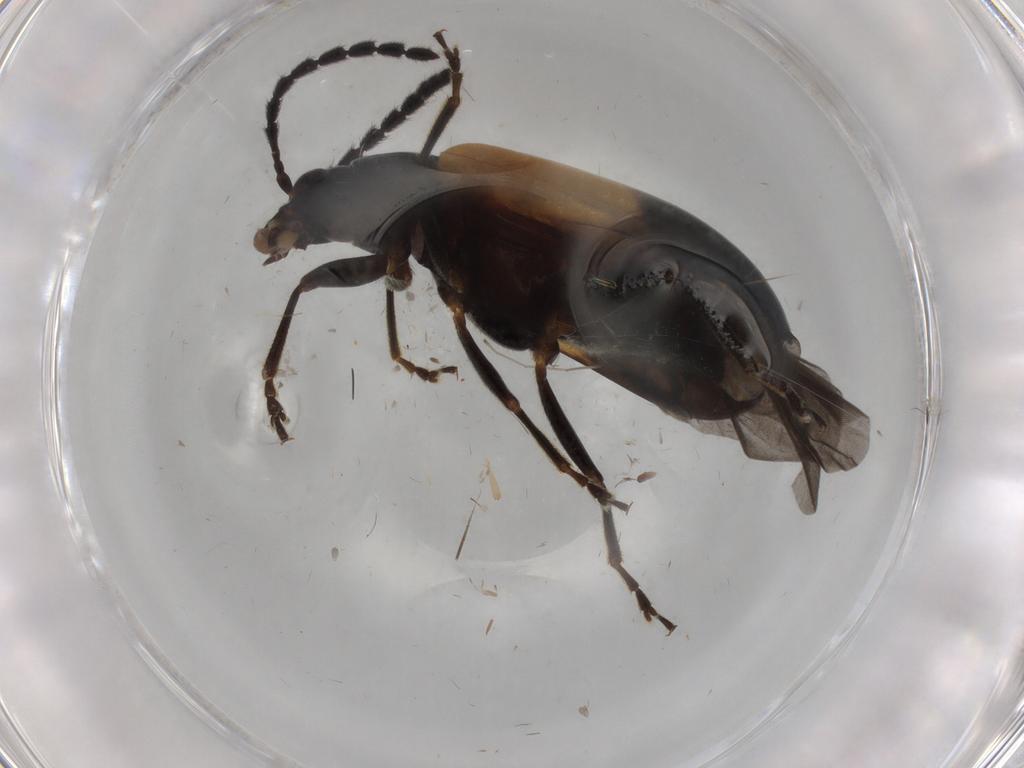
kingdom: Animalia
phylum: Arthropoda
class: Insecta
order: Coleoptera
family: Chrysomelidae
